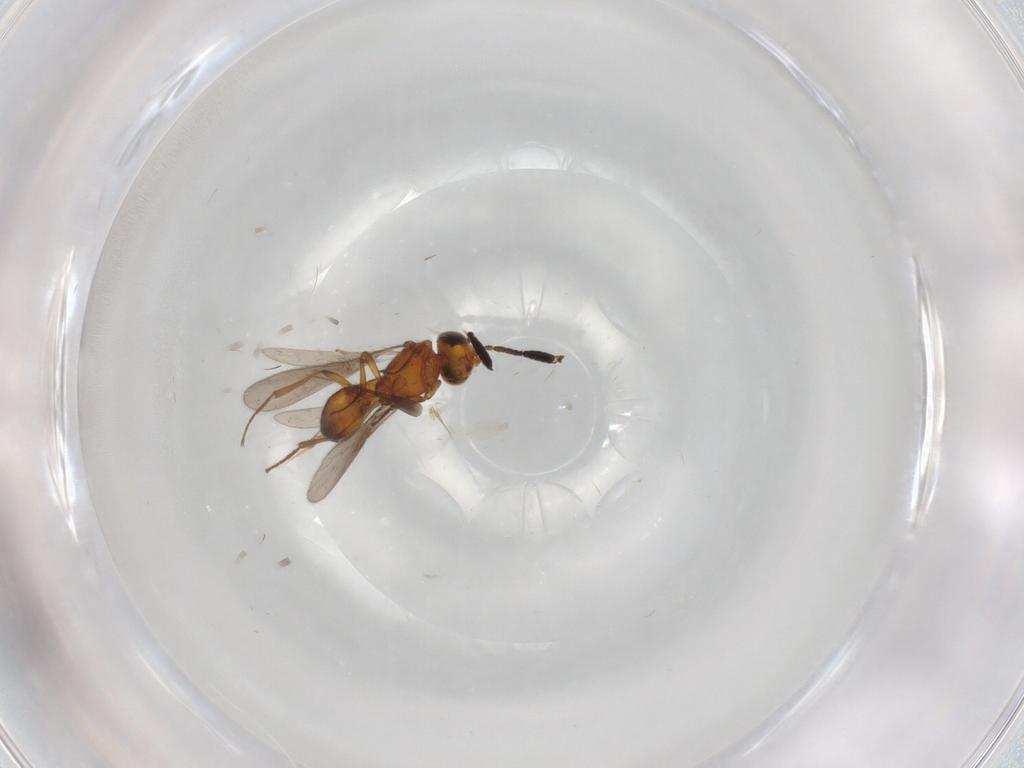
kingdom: Animalia
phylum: Arthropoda
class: Insecta
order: Hymenoptera
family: Scelionidae
